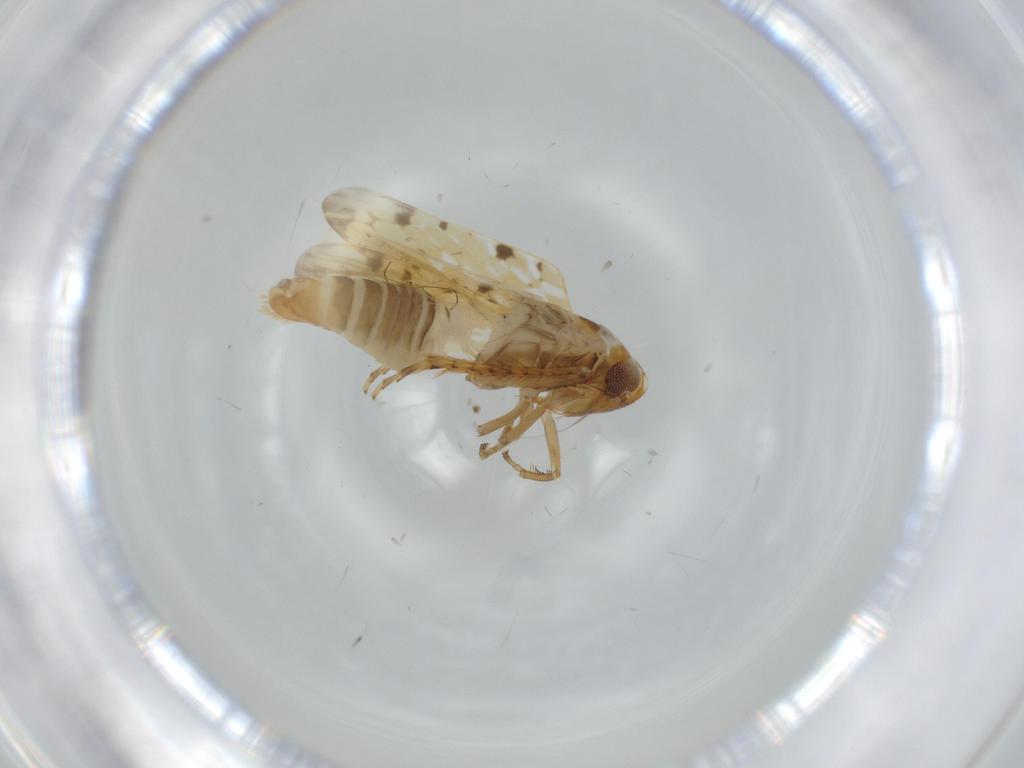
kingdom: Animalia
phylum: Arthropoda
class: Insecta
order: Hemiptera
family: Cicadellidae
